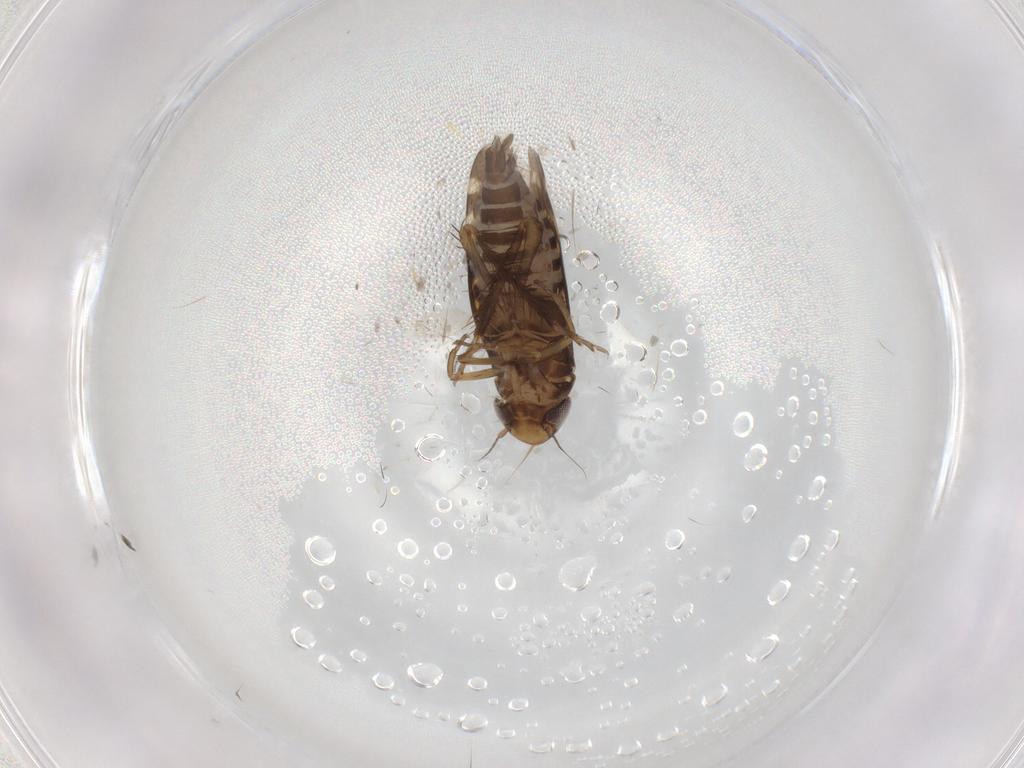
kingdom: Animalia
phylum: Arthropoda
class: Insecta
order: Hemiptera
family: Cicadellidae
